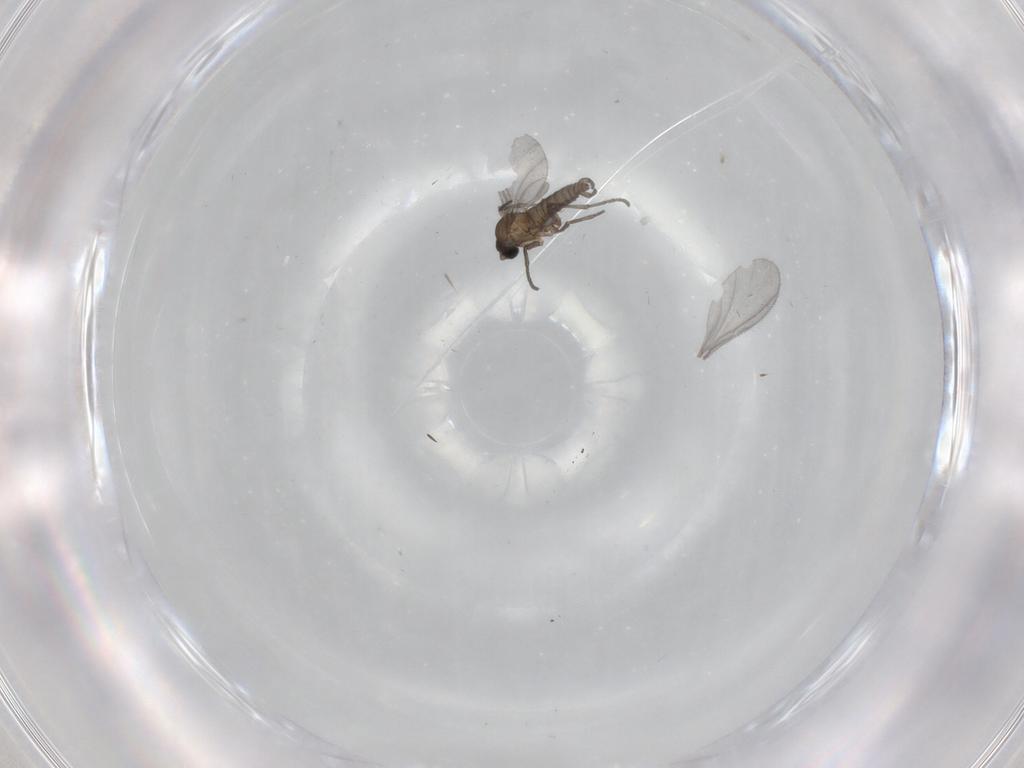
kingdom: Animalia
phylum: Arthropoda
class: Insecta
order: Diptera
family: Sciaridae
